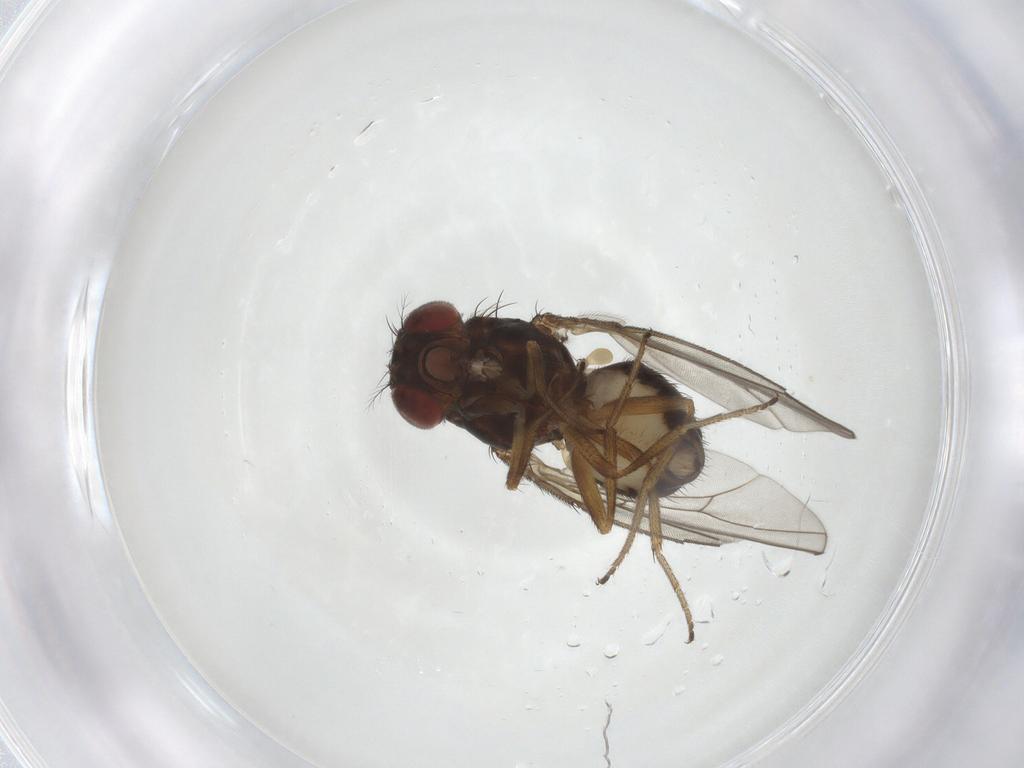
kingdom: Animalia
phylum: Arthropoda
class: Insecta
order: Diptera
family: Drosophilidae
